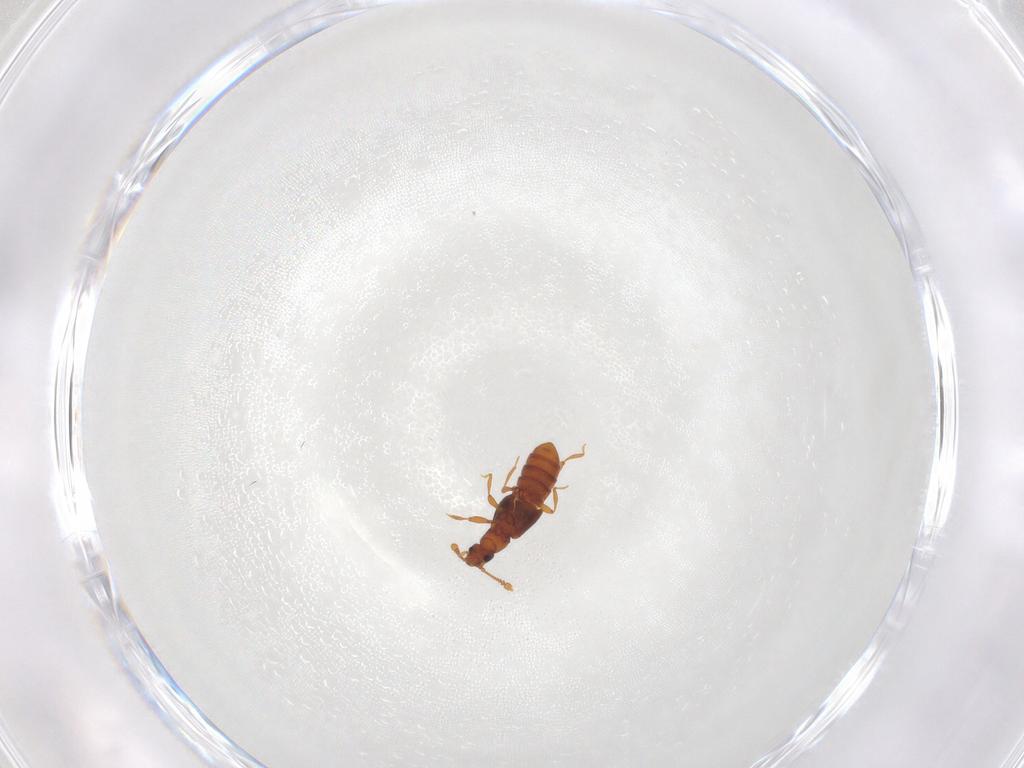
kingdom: Animalia
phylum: Arthropoda
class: Insecta
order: Coleoptera
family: Staphylinidae
